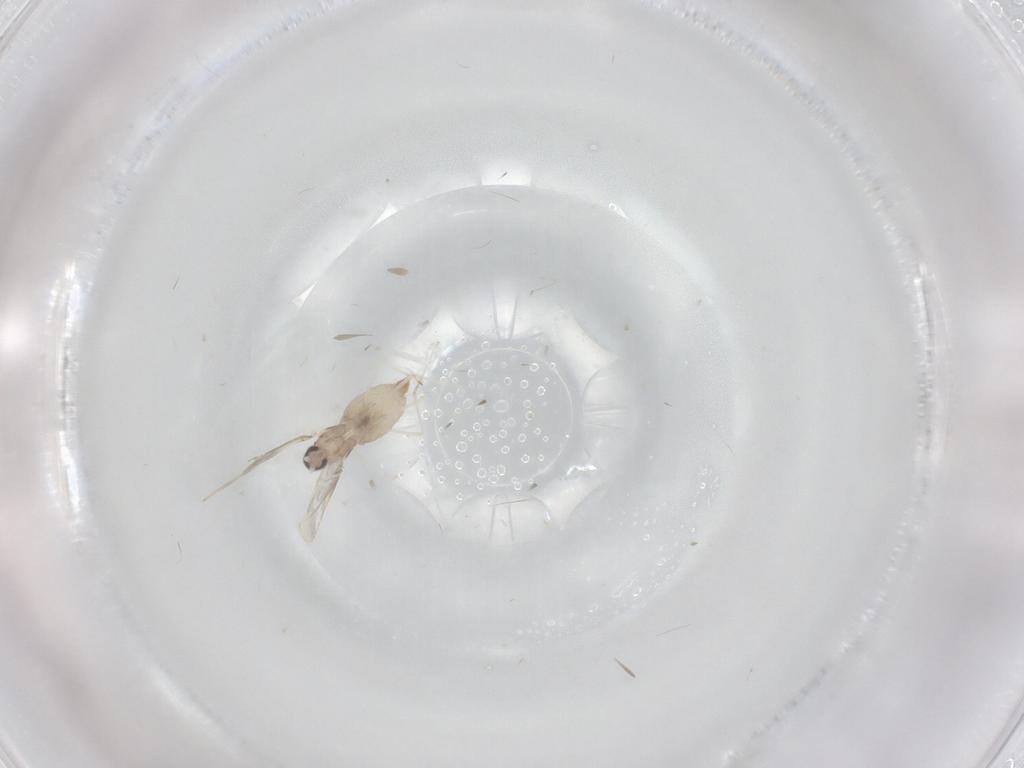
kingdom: Animalia
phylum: Arthropoda
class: Insecta
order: Diptera
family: Cecidomyiidae
